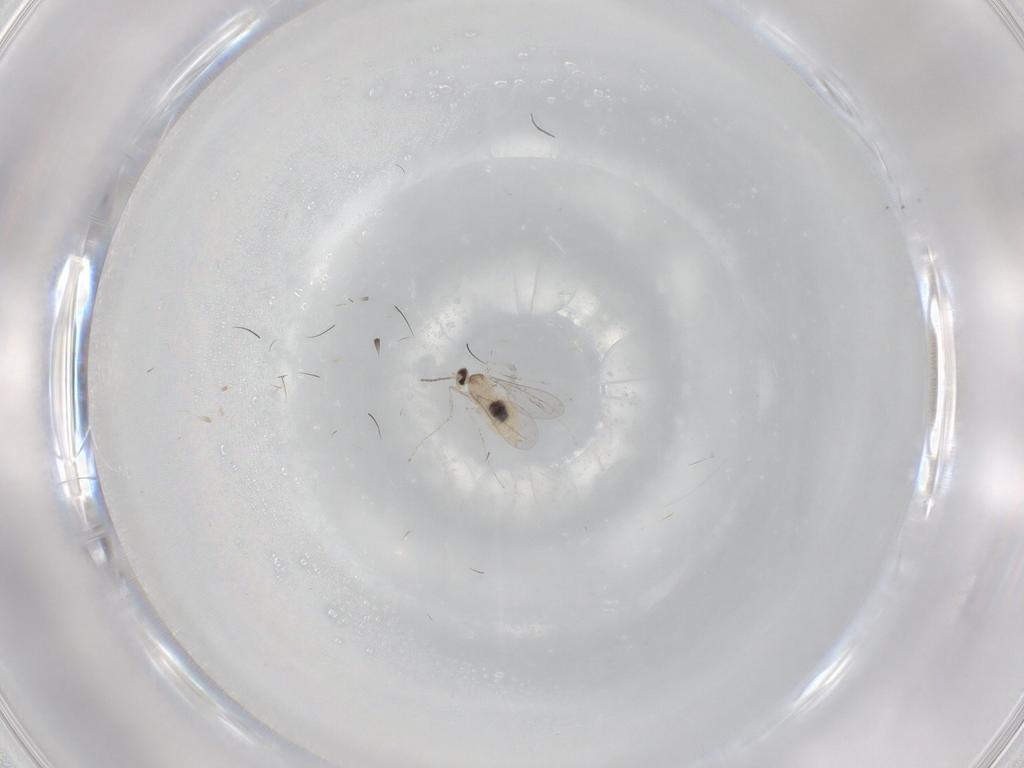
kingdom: Animalia
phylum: Arthropoda
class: Insecta
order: Diptera
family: Cecidomyiidae
